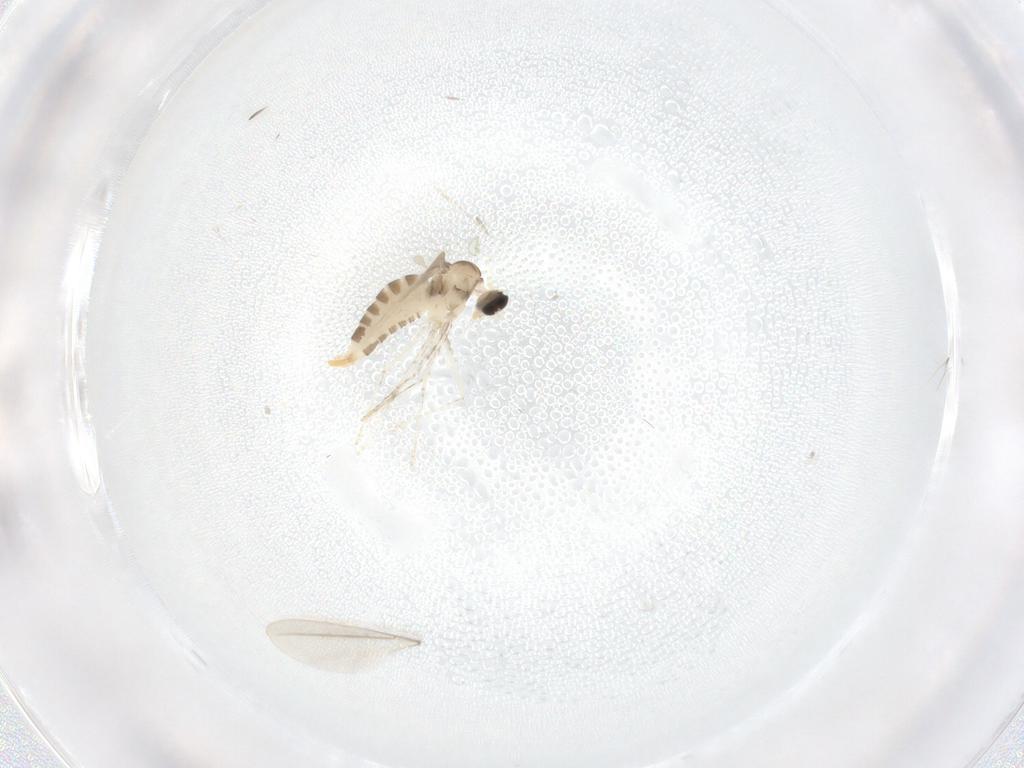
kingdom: Animalia
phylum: Arthropoda
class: Insecta
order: Diptera
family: Cecidomyiidae
